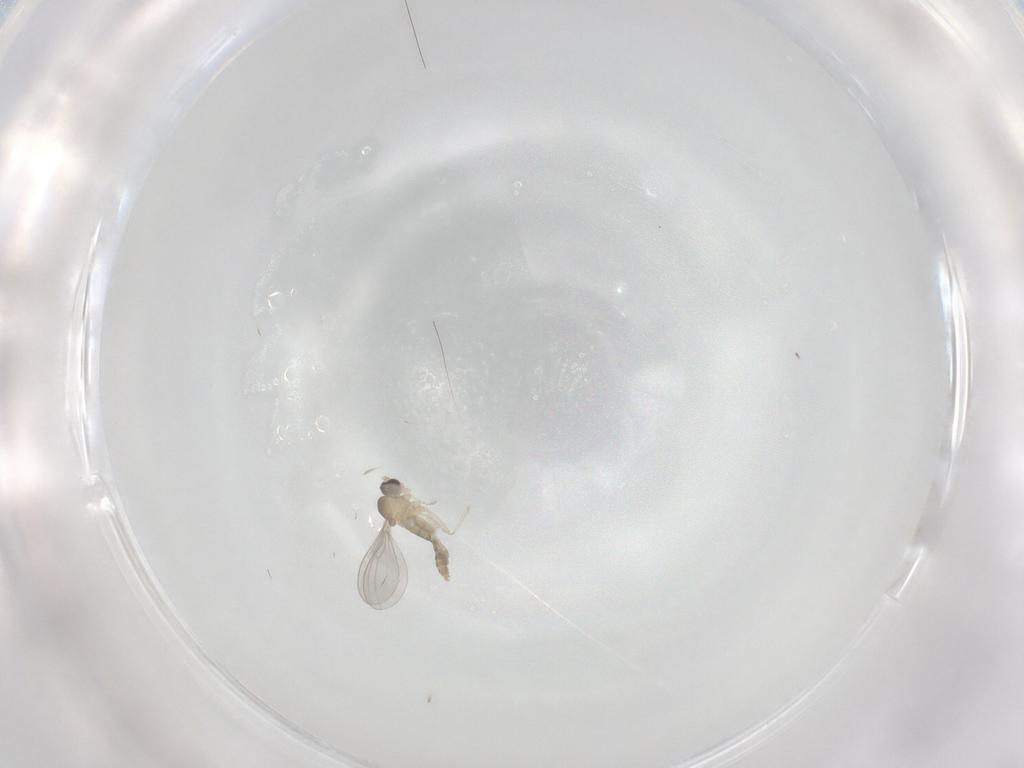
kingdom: Animalia
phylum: Arthropoda
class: Insecta
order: Diptera
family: Cecidomyiidae
